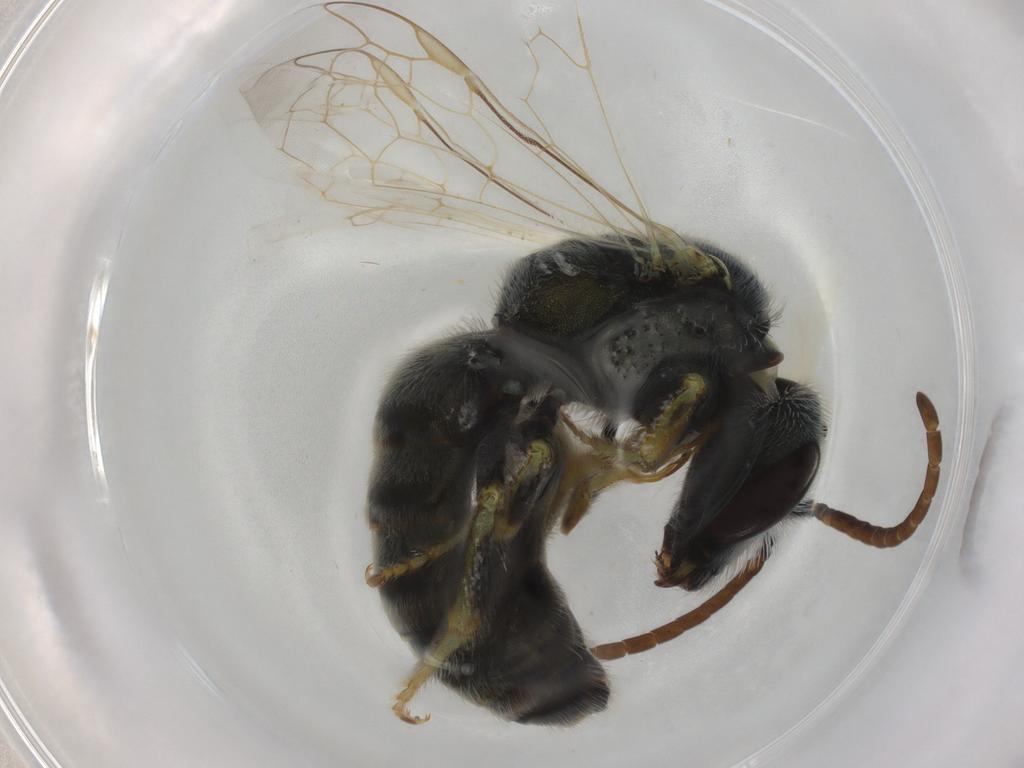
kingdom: Animalia
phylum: Arthropoda
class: Insecta
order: Hymenoptera
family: Halictidae
